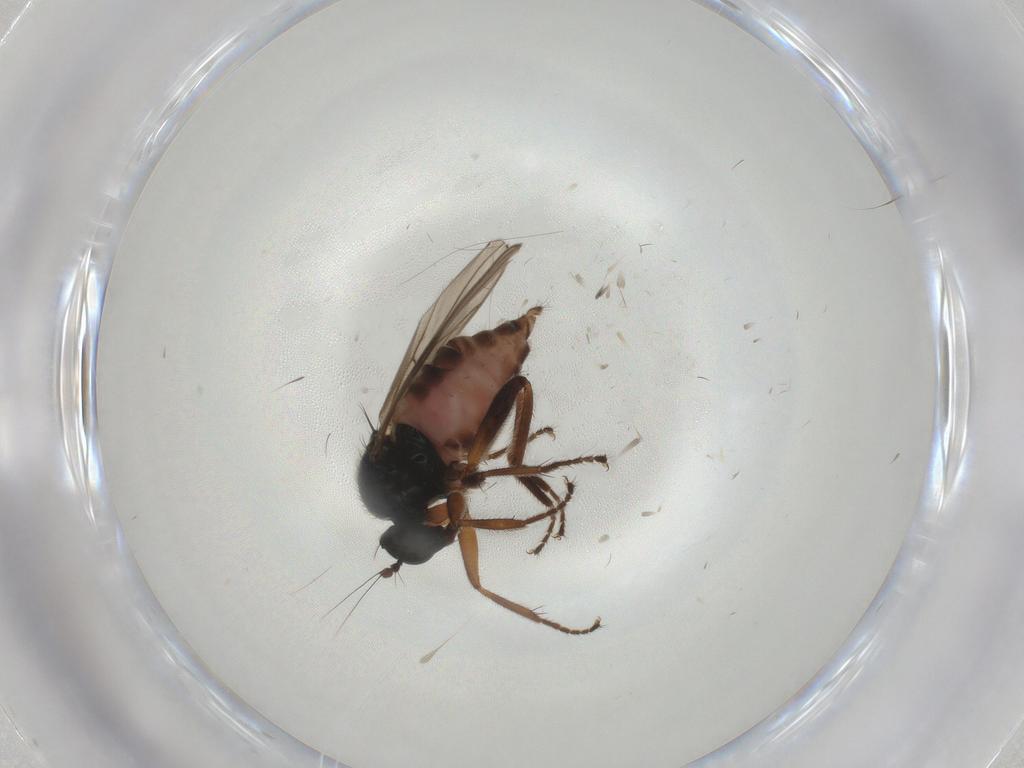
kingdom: Animalia
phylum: Arthropoda
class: Insecta
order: Diptera
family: Hybotidae
